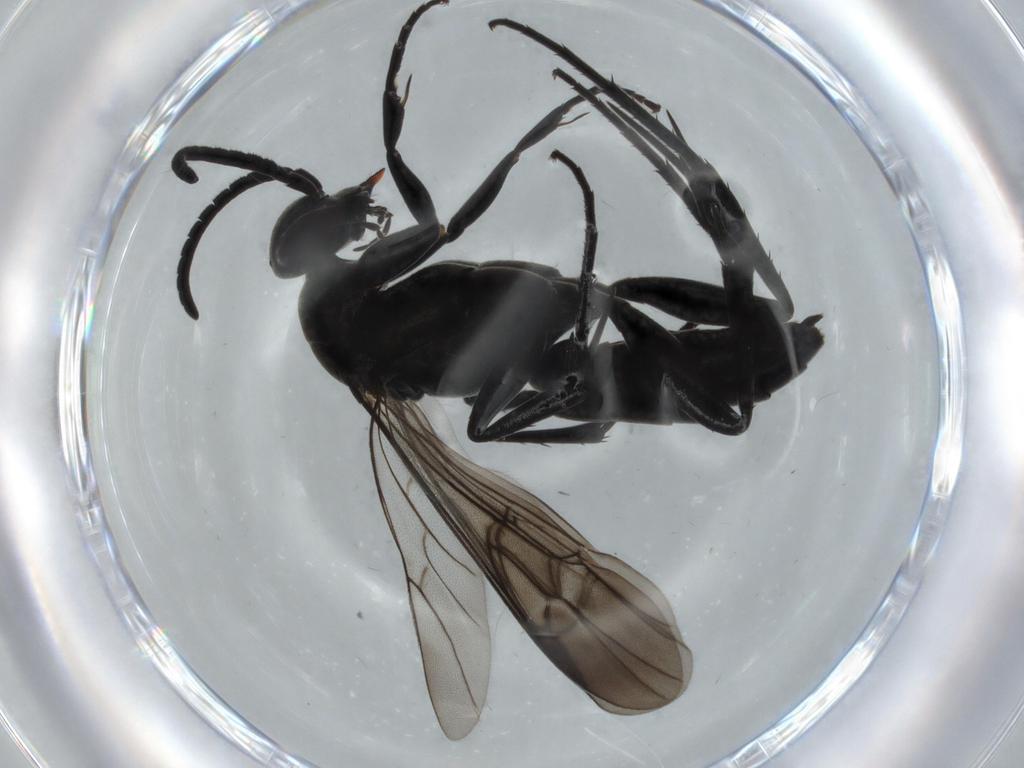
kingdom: Animalia
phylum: Arthropoda
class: Insecta
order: Hymenoptera
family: Pompilidae
